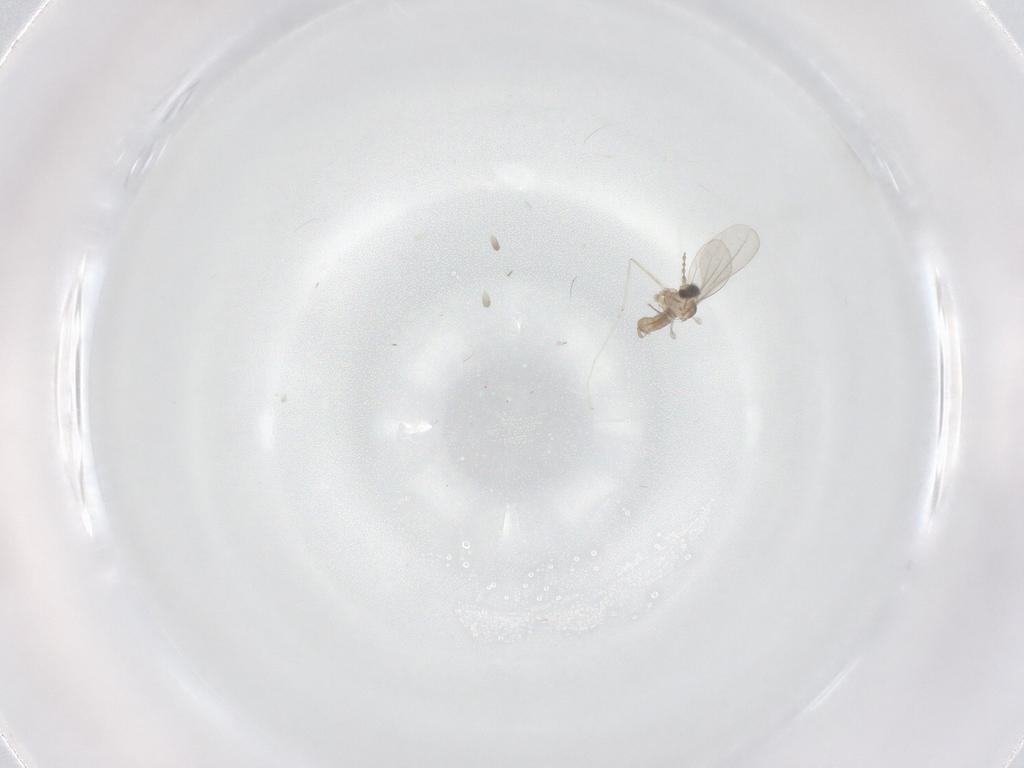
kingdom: Animalia
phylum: Arthropoda
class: Insecta
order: Diptera
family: Cecidomyiidae
